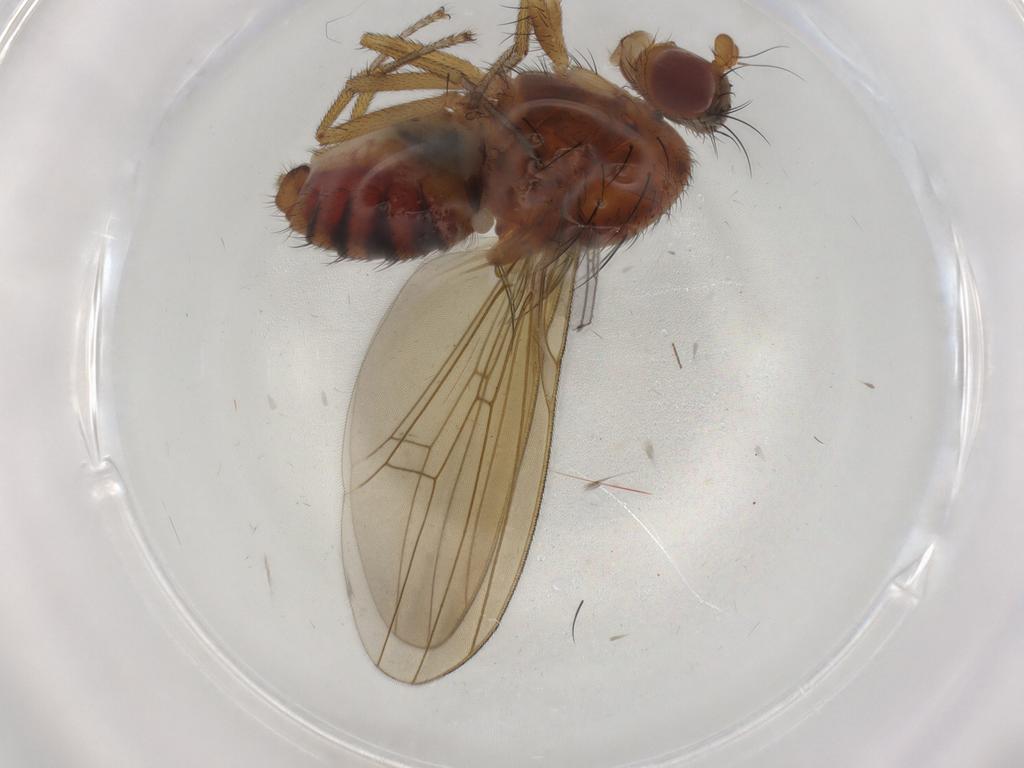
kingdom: Animalia
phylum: Arthropoda
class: Insecta
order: Diptera
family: Lauxaniidae
